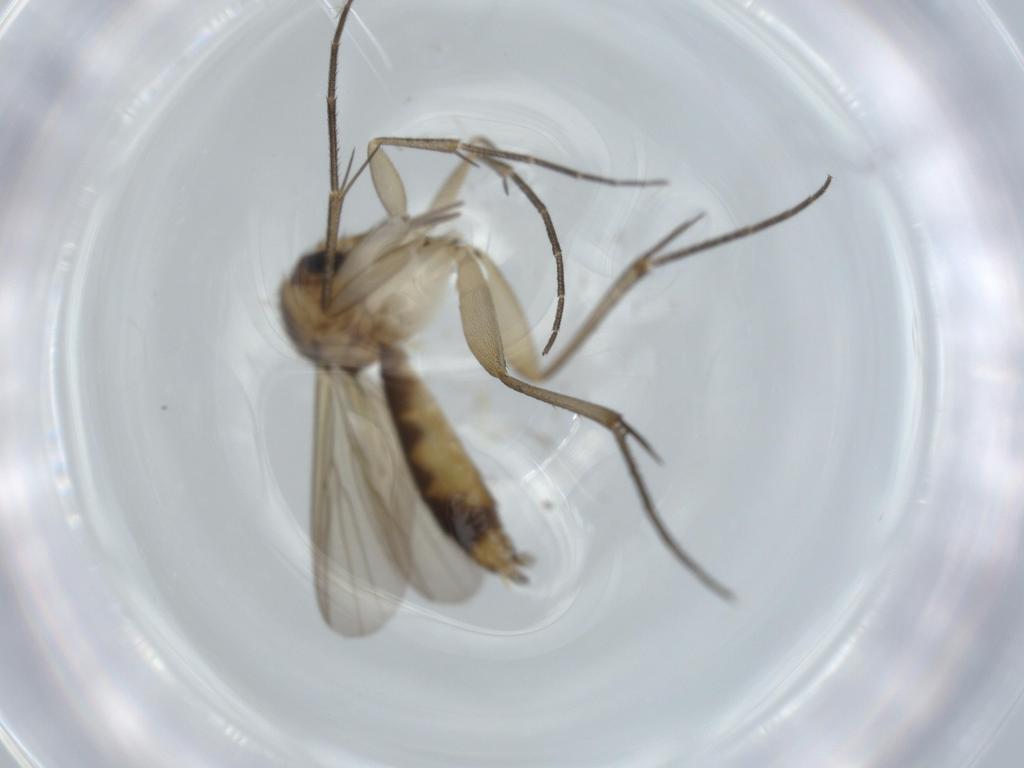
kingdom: Animalia
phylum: Arthropoda
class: Insecta
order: Diptera
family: Mycetophilidae
